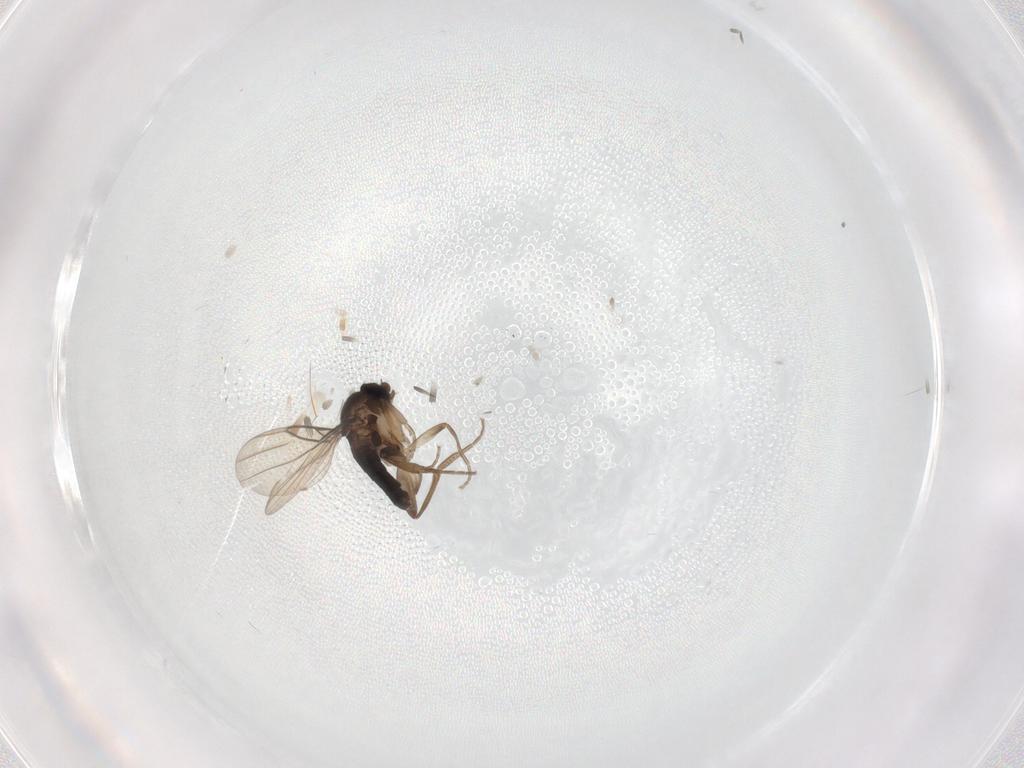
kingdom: Animalia
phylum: Arthropoda
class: Insecta
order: Diptera
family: Phoridae
